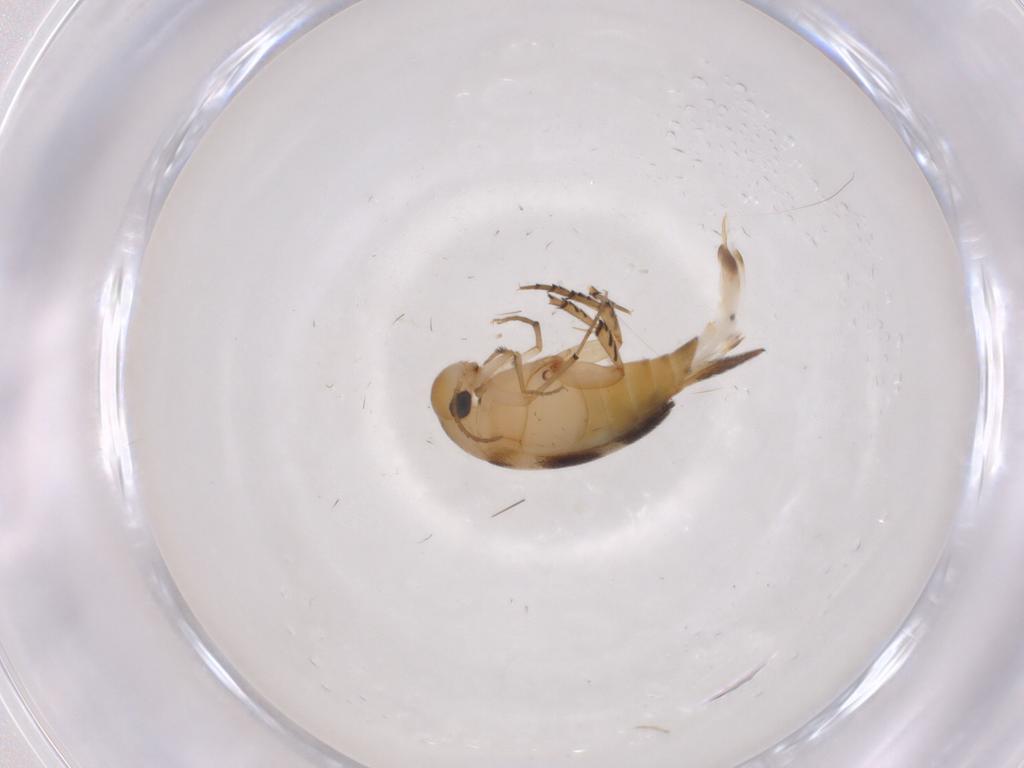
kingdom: Animalia
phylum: Arthropoda
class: Insecta
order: Coleoptera
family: Mordellidae
